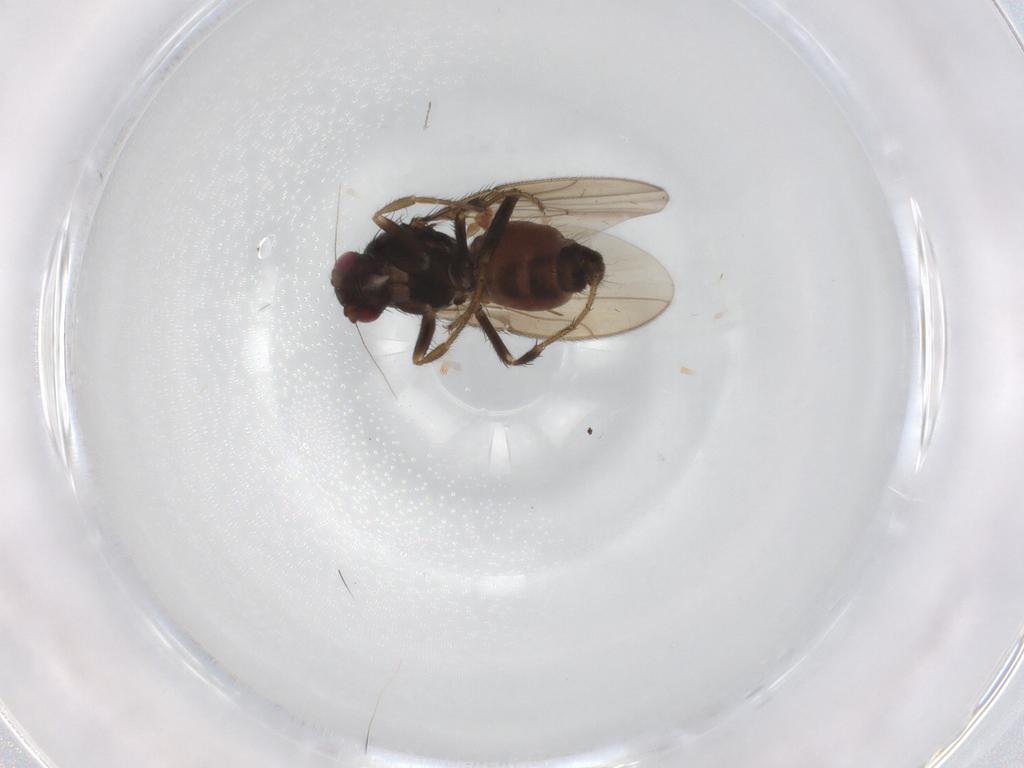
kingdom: Animalia
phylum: Arthropoda
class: Insecta
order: Diptera
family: Sphaeroceridae
